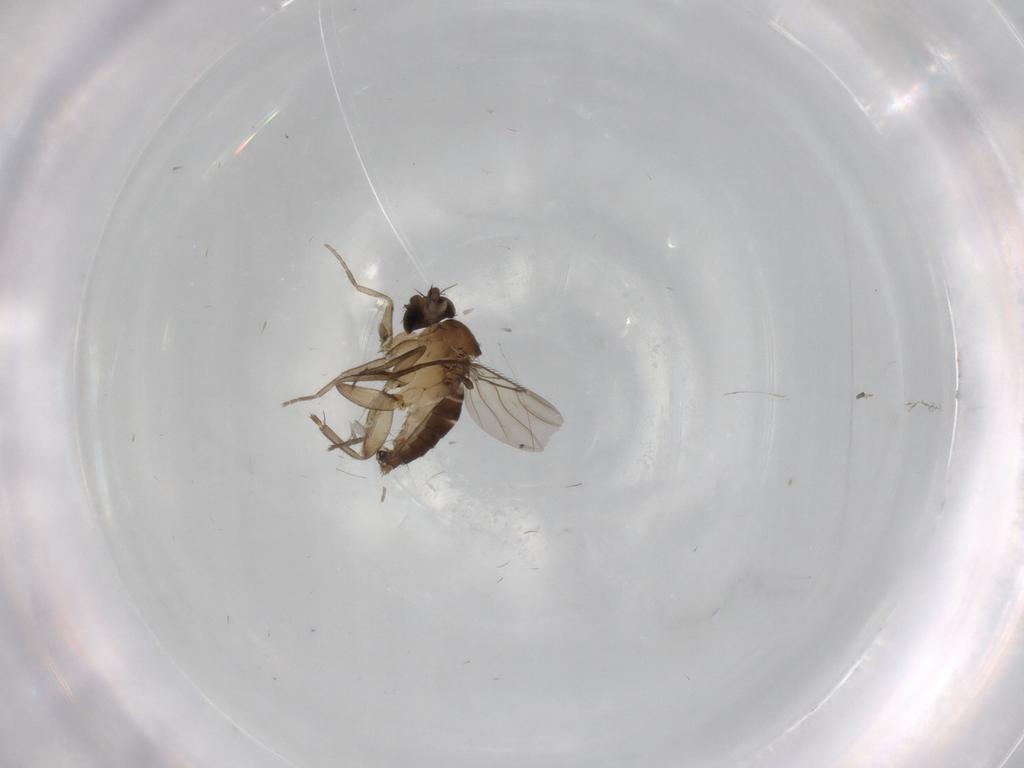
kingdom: Animalia
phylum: Arthropoda
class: Insecta
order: Diptera
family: Phoridae
